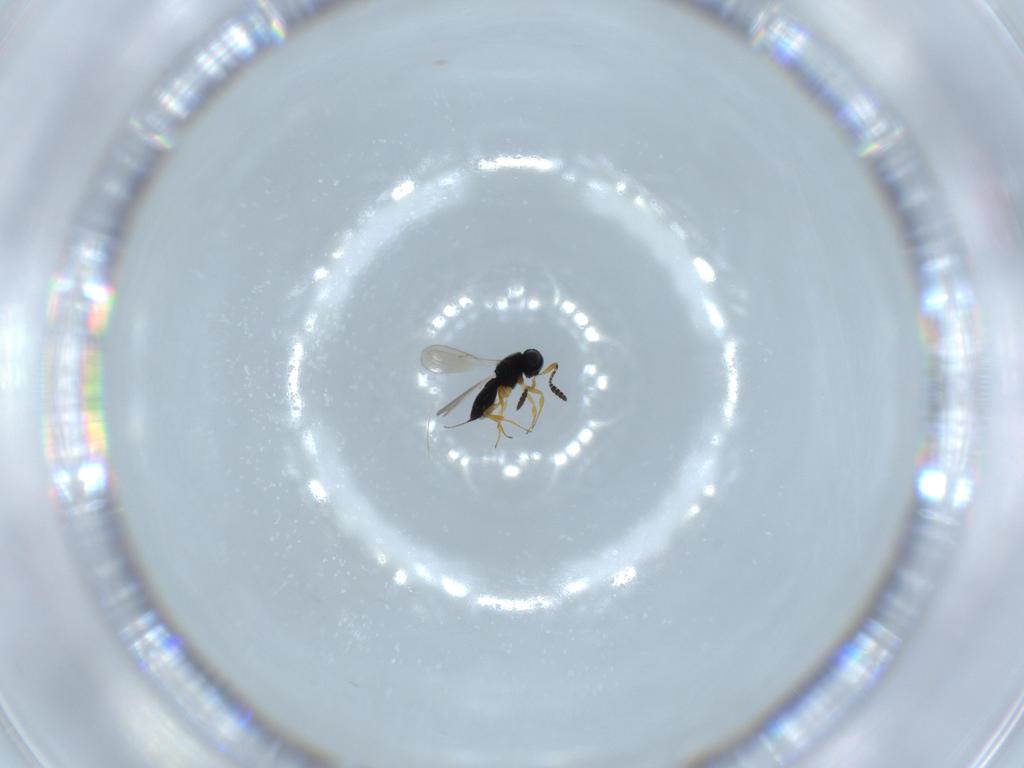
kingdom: Animalia
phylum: Arthropoda
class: Insecta
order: Hymenoptera
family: Scelionidae
